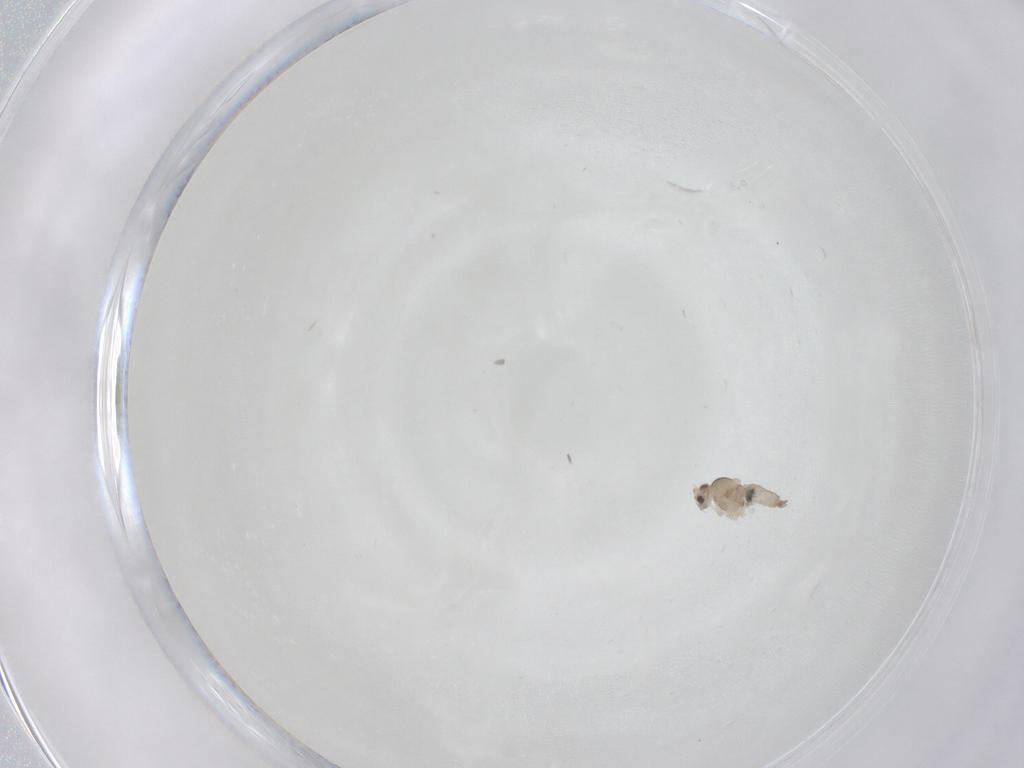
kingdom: Animalia
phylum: Arthropoda
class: Insecta
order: Diptera
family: Cecidomyiidae
